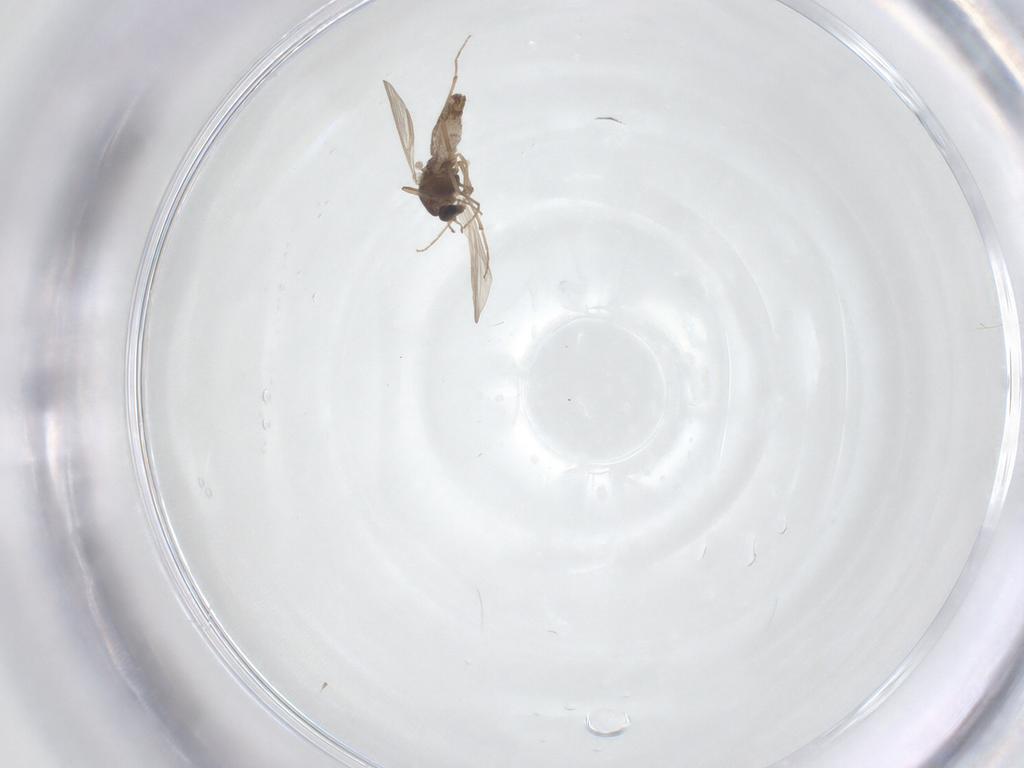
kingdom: Animalia
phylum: Arthropoda
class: Insecta
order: Diptera
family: Chironomidae
